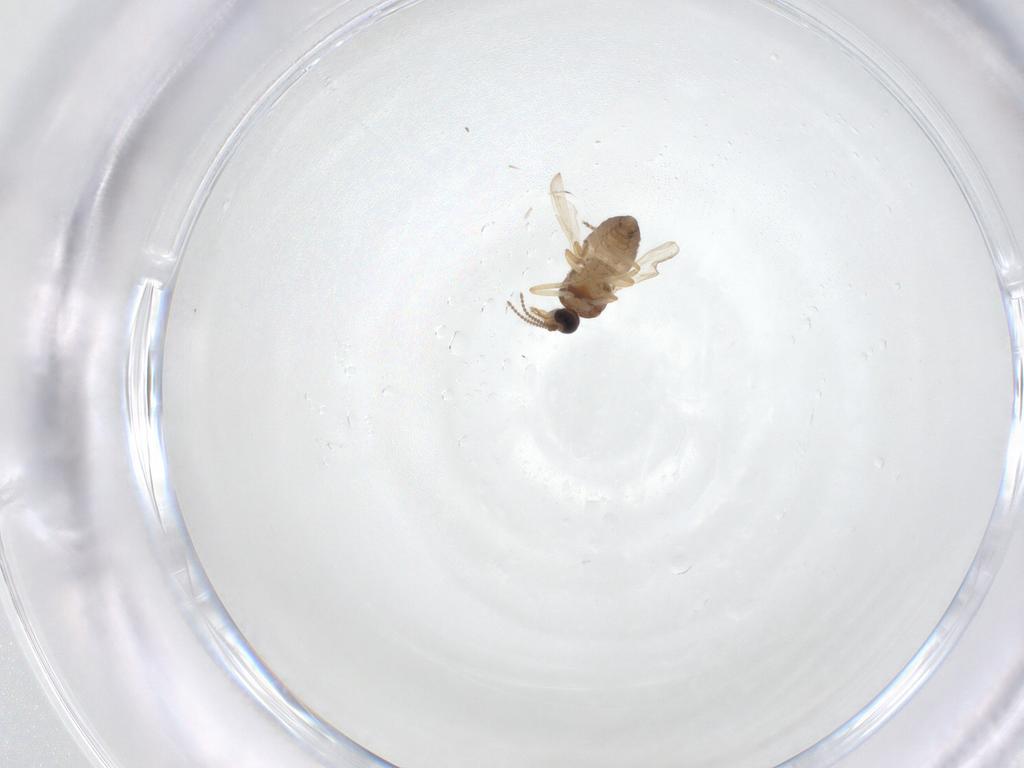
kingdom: Animalia
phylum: Arthropoda
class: Insecta
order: Diptera
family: Ceratopogonidae
